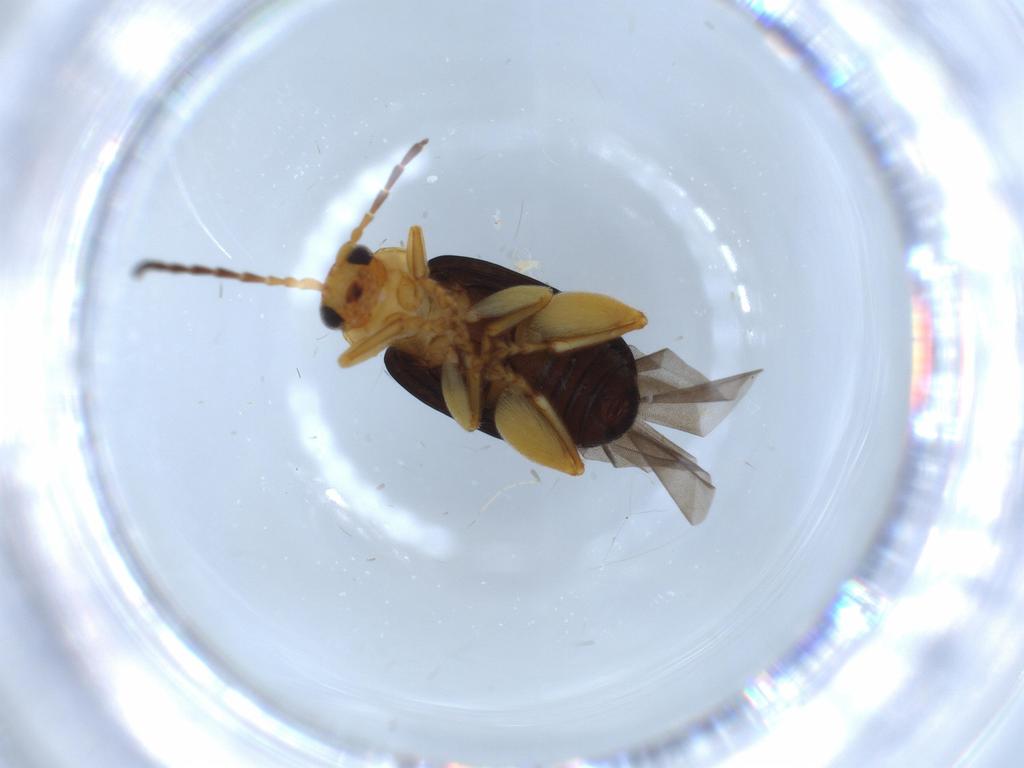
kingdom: Animalia
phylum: Arthropoda
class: Insecta
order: Coleoptera
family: Chrysomelidae
